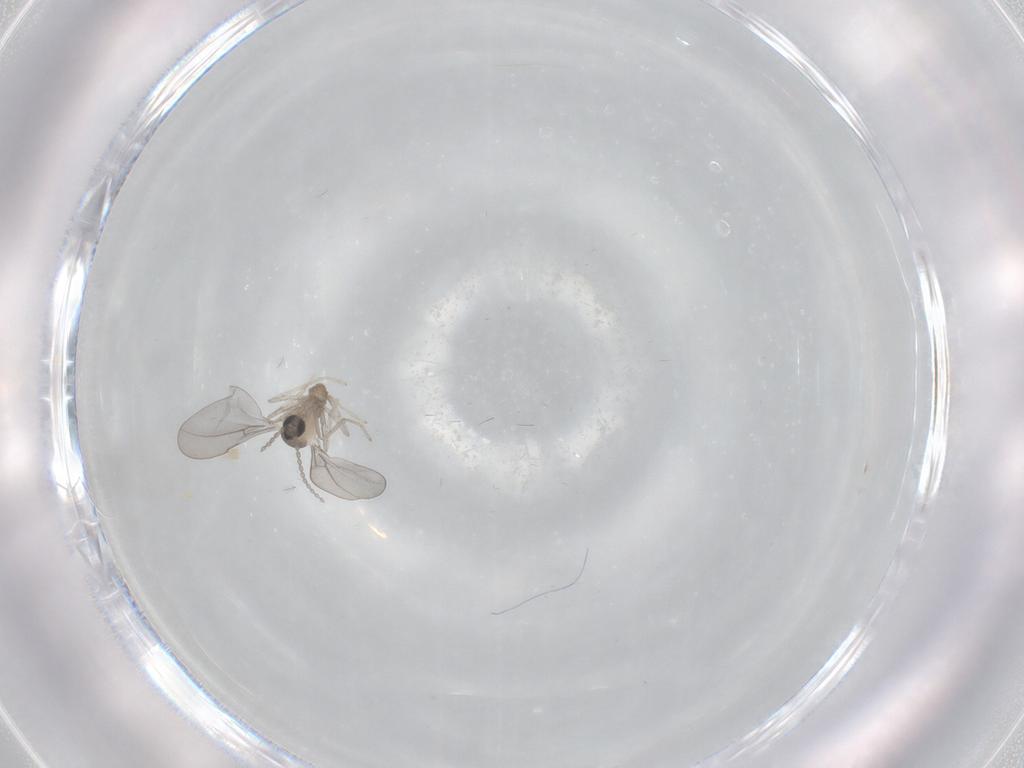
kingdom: Animalia
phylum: Arthropoda
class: Insecta
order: Diptera
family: Cecidomyiidae
